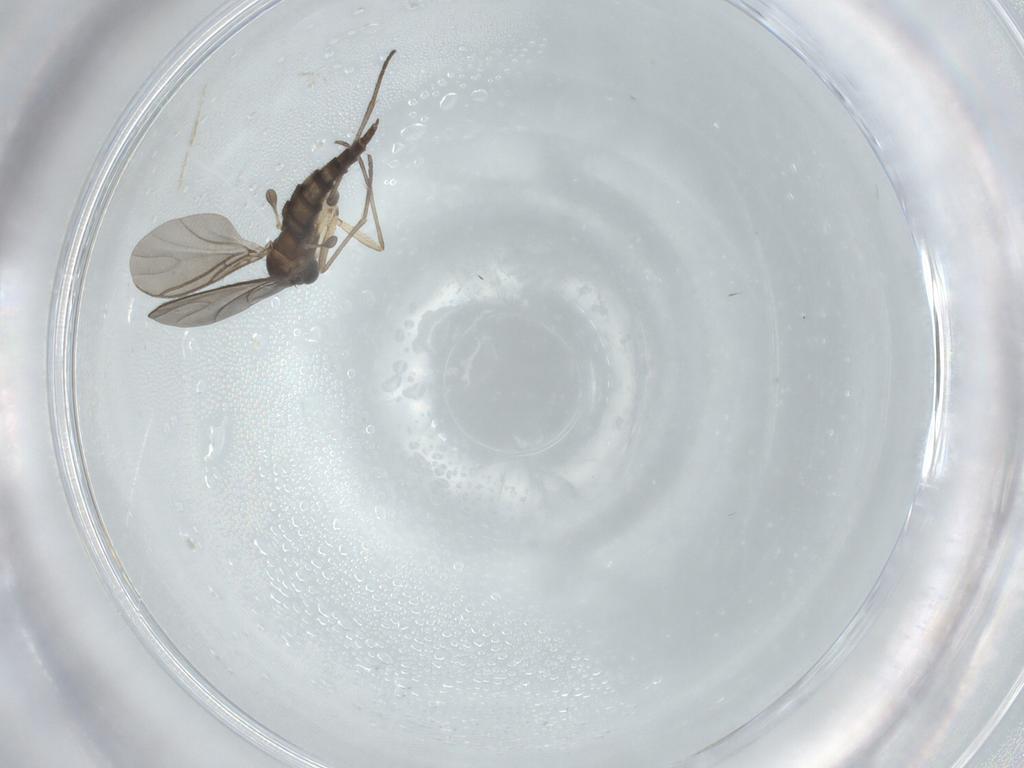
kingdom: Animalia
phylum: Arthropoda
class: Insecta
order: Diptera
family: Sciaridae
